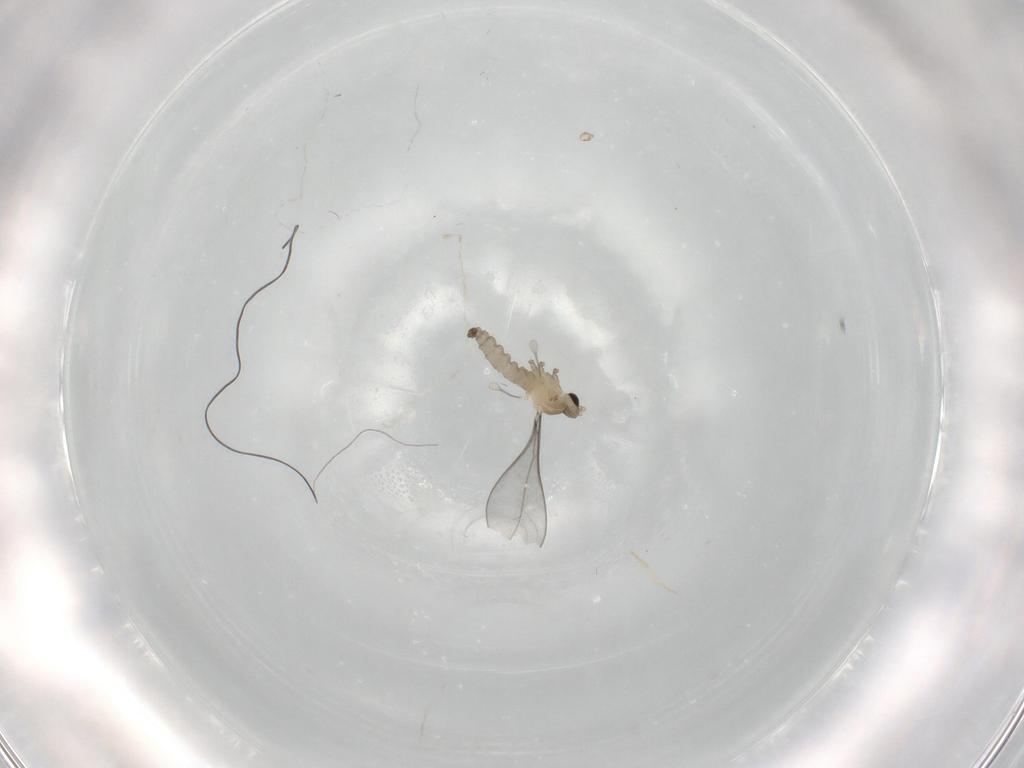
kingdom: Animalia
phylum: Arthropoda
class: Insecta
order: Diptera
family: Cecidomyiidae
